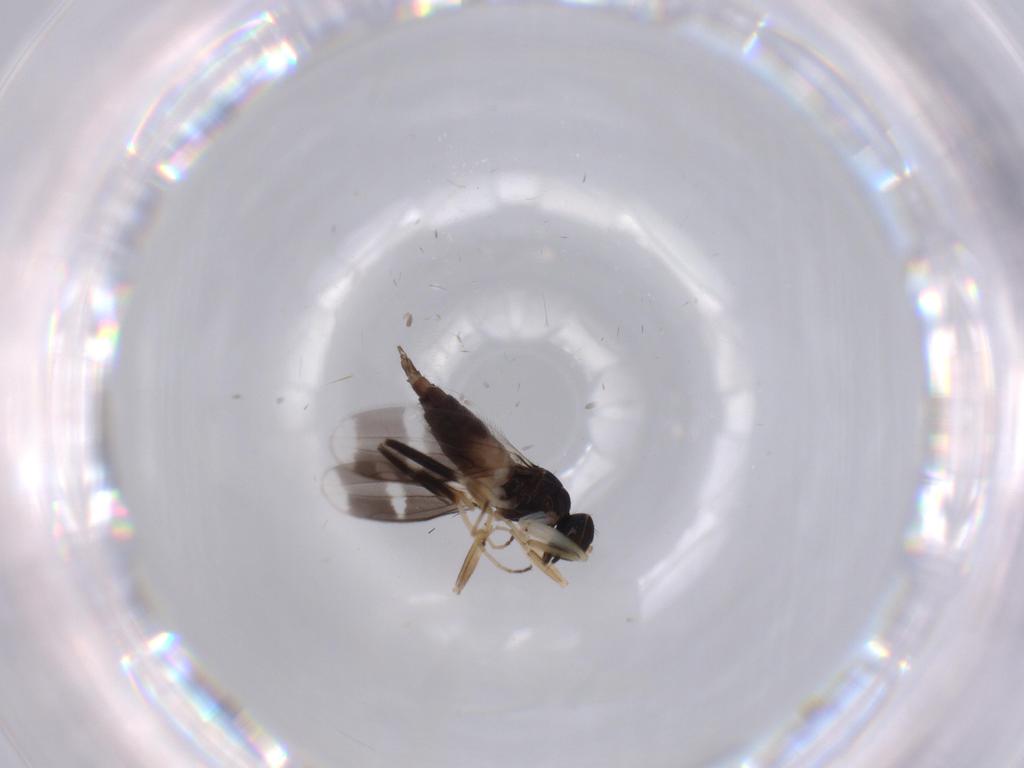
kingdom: Animalia
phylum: Arthropoda
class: Insecta
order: Diptera
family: Hybotidae
